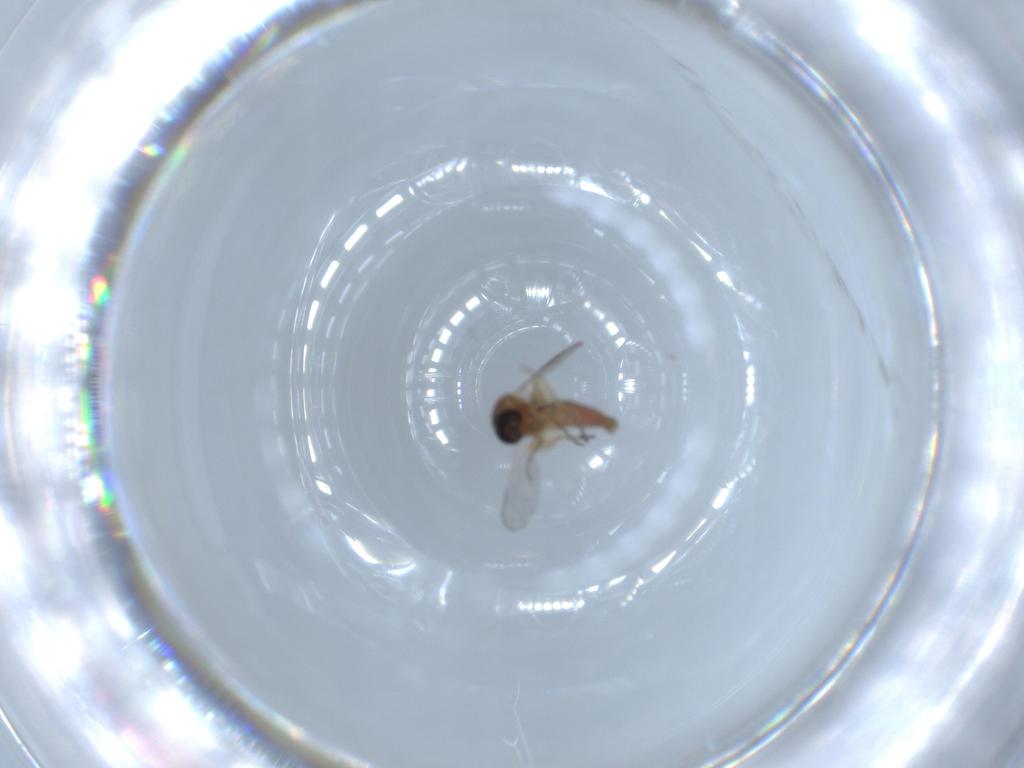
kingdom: Animalia
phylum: Arthropoda
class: Insecta
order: Diptera
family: Ceratopogonidae
